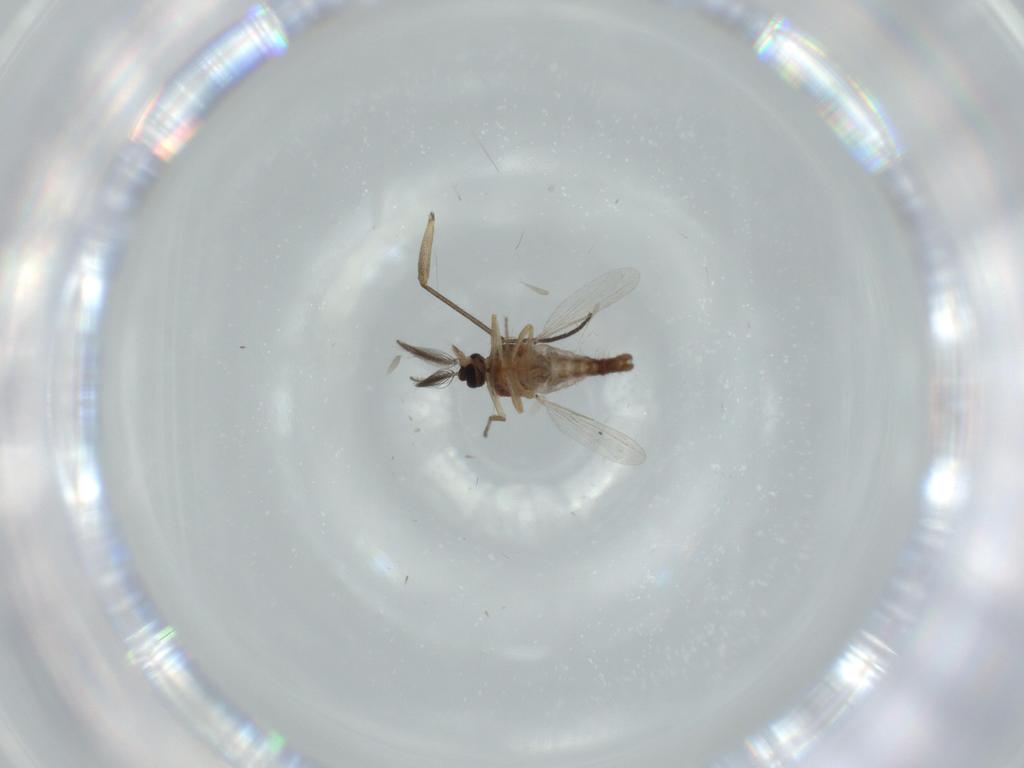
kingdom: Animalia
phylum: Arthropoda
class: Insecta
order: Diptera
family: Ceratopogonidae
